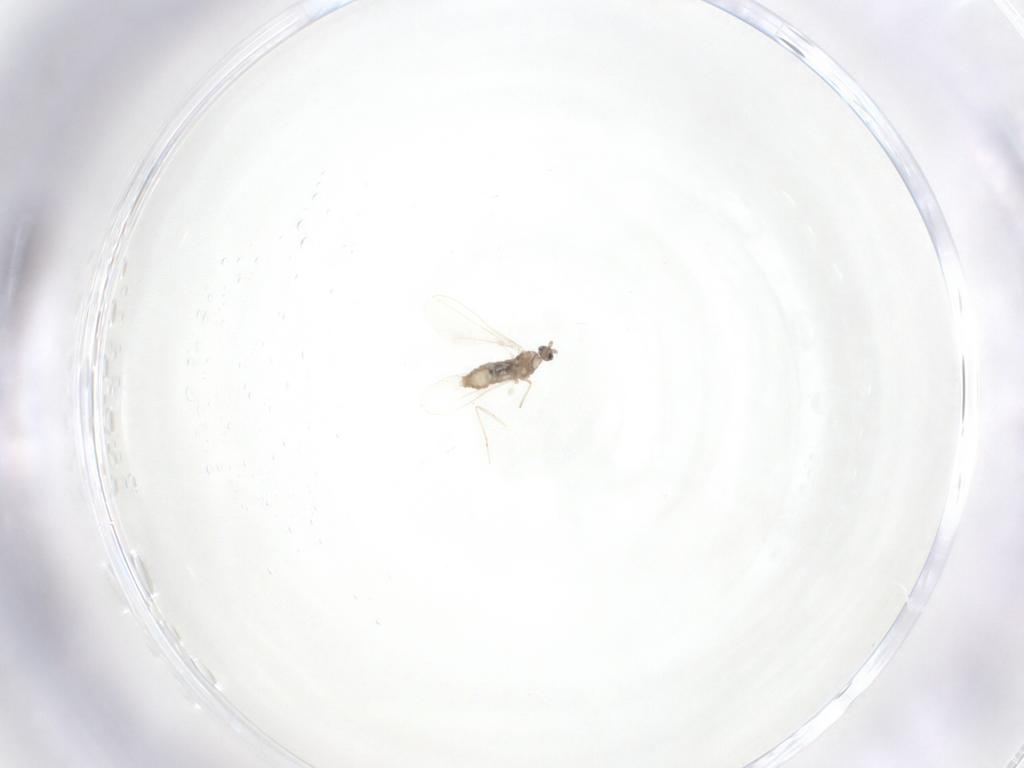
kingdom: Animalia
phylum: Arthropoda
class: Insecta
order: Diptera
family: Cecidomyiidae
